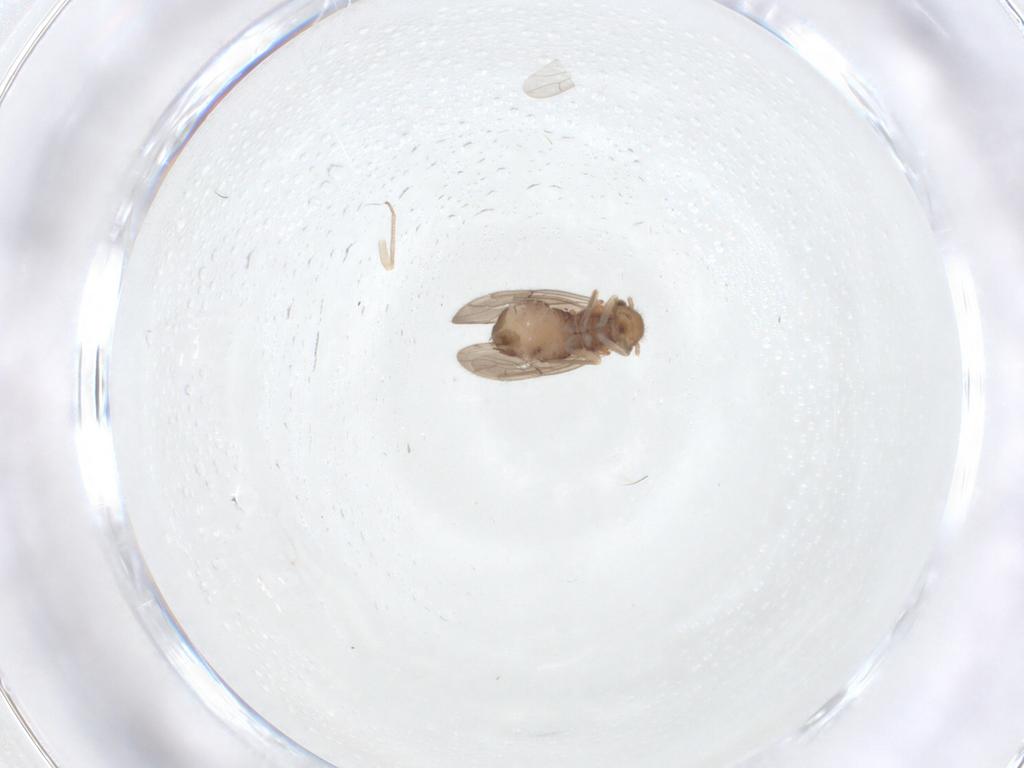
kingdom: Animalia
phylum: Arthropoda
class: Insecta
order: Psocodea
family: Ectopsocidae
